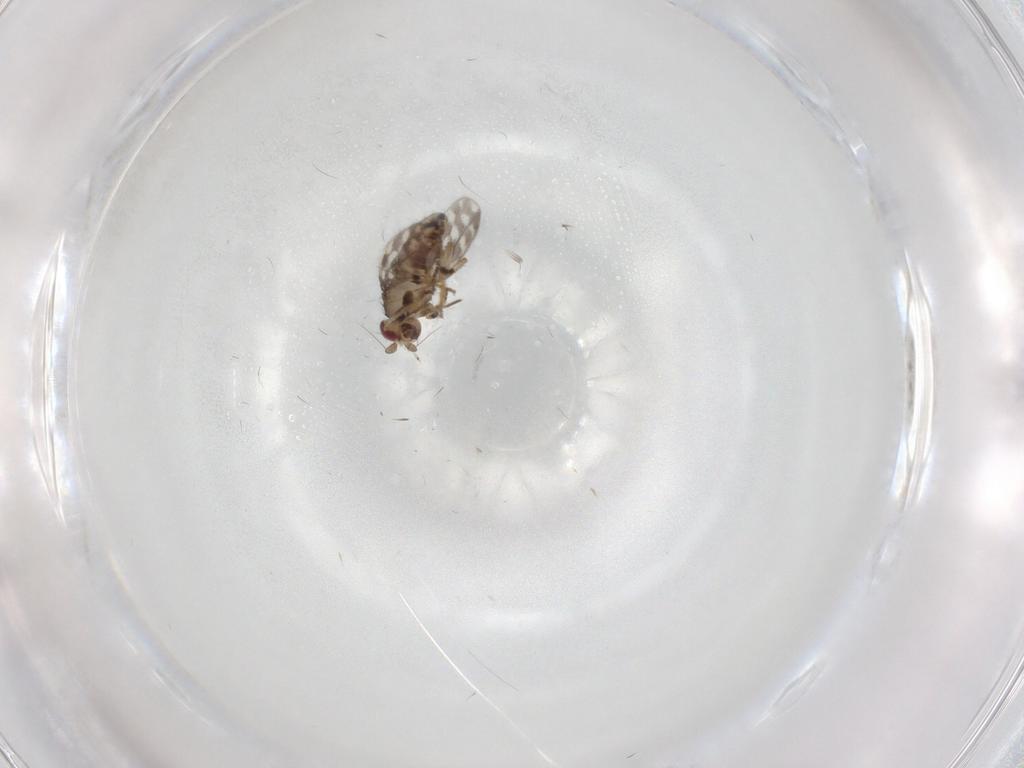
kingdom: Animalia
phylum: Arthropoda
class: Insecta
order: Diptera
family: Sphaeroceridae
